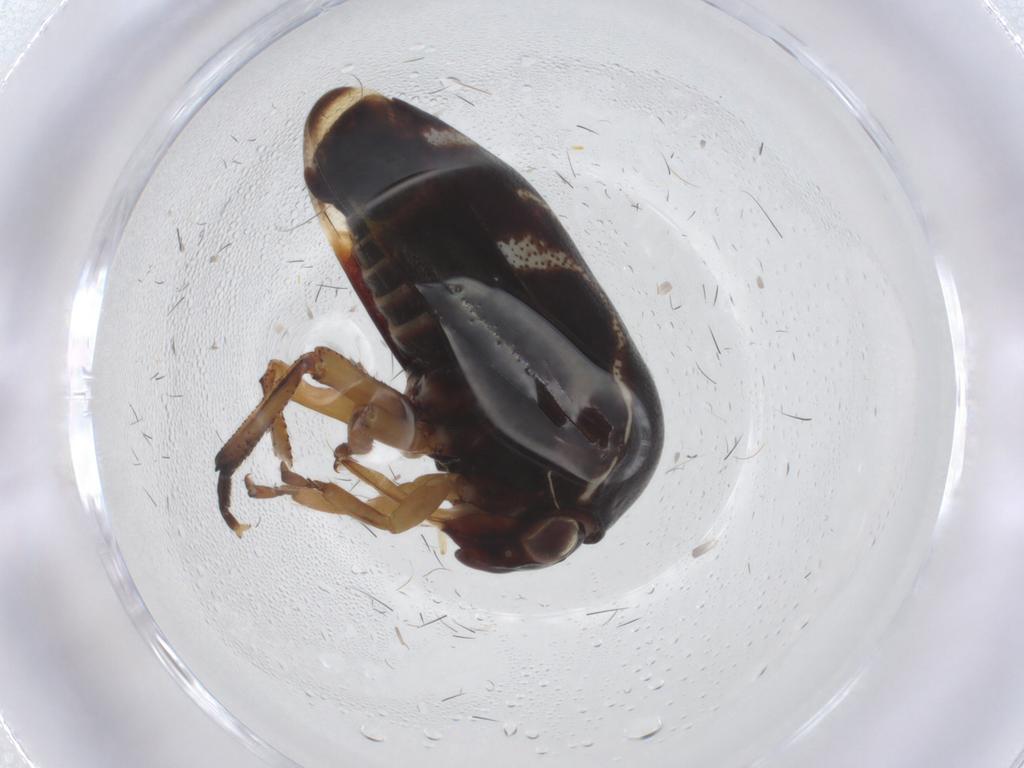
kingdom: Animalia
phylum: Arthropoda
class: Insecta
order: Hemiptera
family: Membracidae
